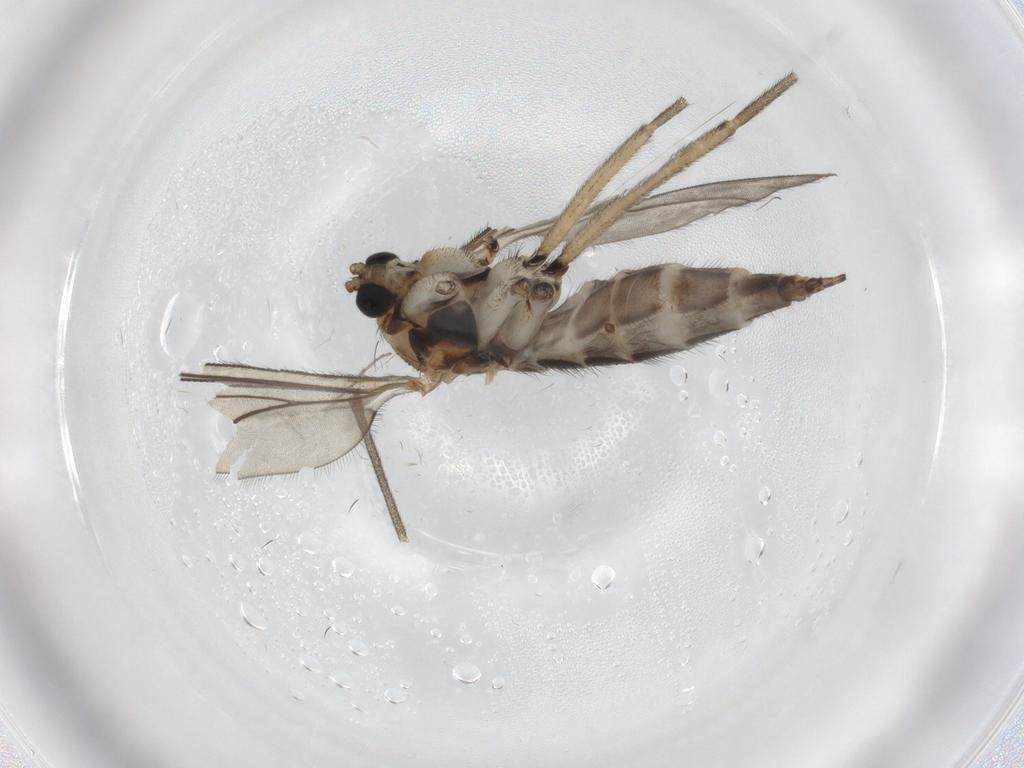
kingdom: Animalia
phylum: Arthropoda
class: Insecta
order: Diptera
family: Sciaridae
